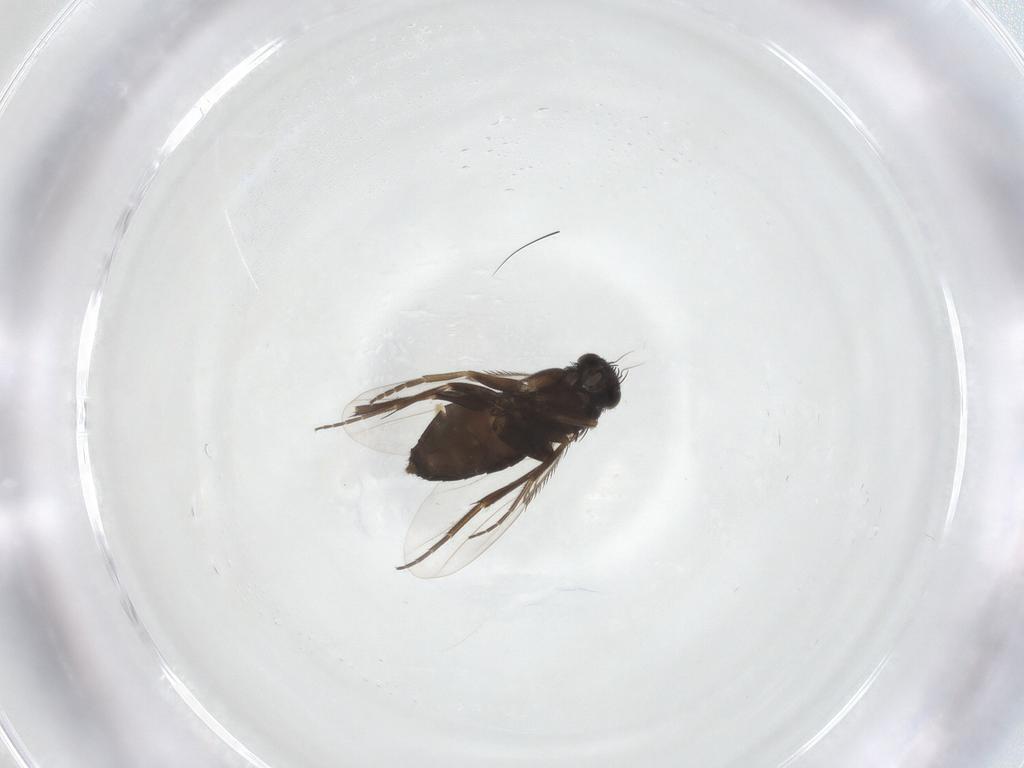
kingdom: Animalia
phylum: Arthropoda
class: Insecta
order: Diptera
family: Phoridae
